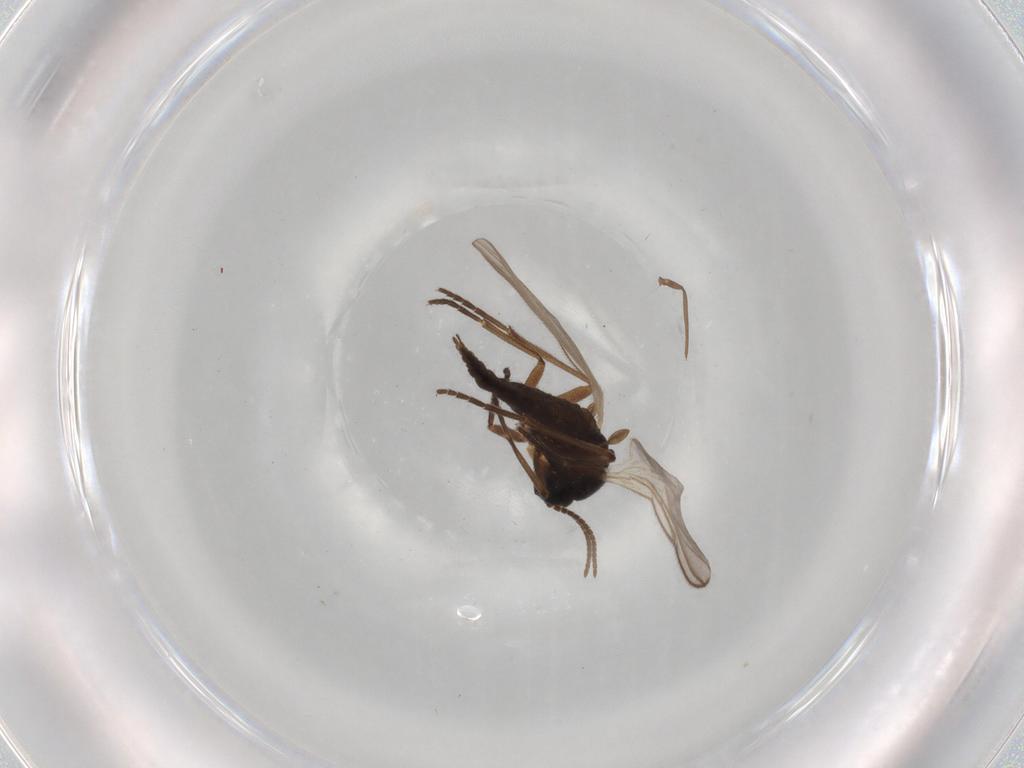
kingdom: Animalia
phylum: Arthropoda
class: Insecta
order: Diptera
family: Sciaridae
